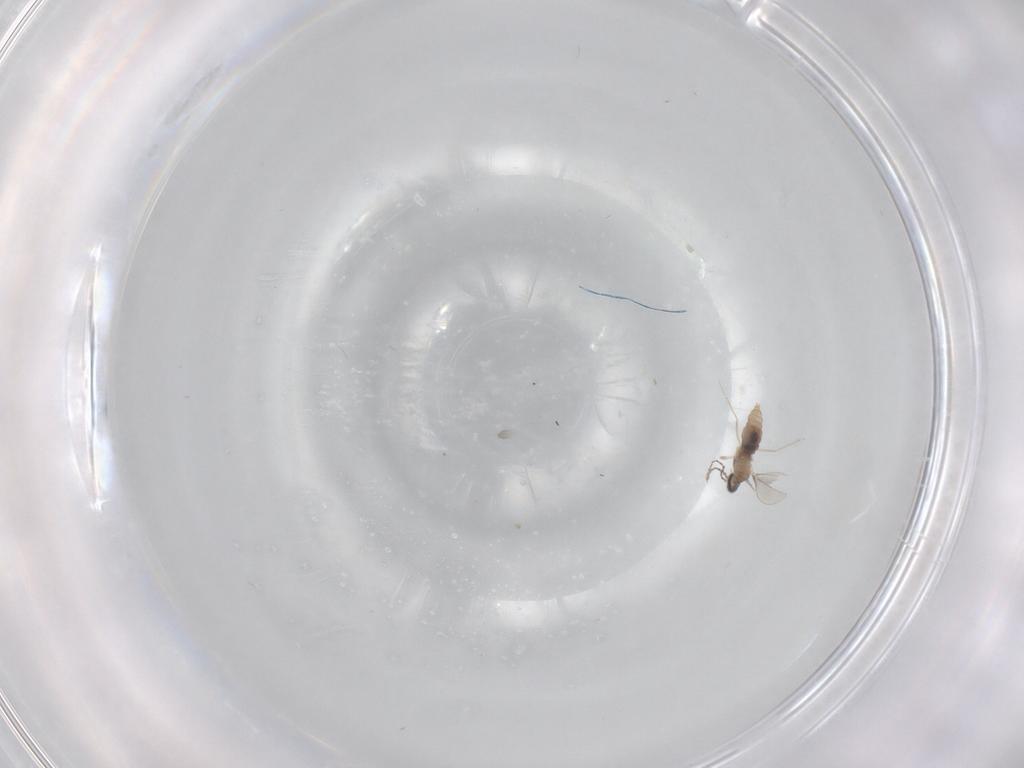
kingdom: Animalia
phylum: Arthropoda
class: Insecta
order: Diptera
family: Cecidomyiidae
